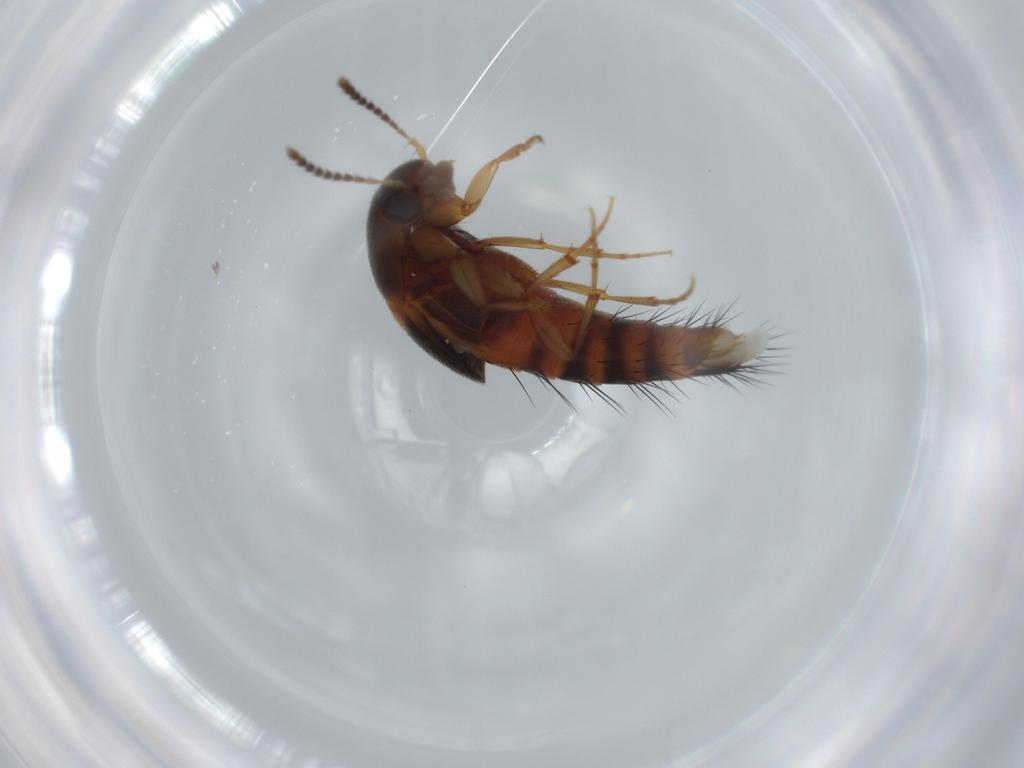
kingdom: Animalia
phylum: Arthropoda
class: Insecta
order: Coleoptera
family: Staphylinidae
